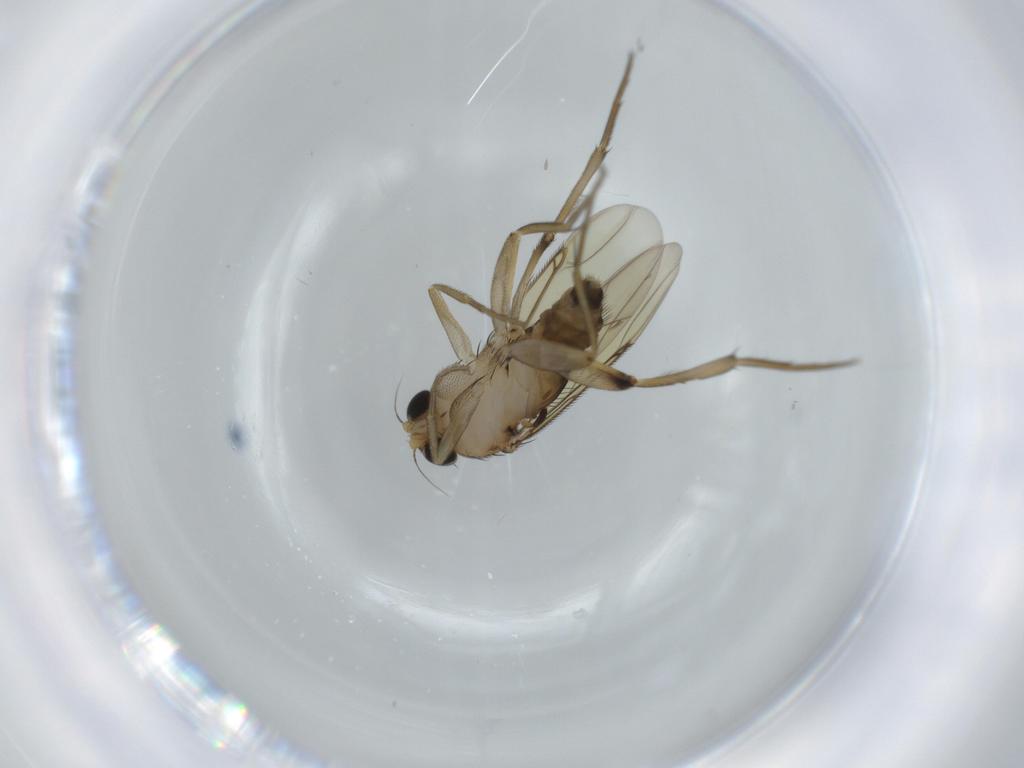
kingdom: Animalia
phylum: Arthropoda
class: Insecta
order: Diptera
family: Phoridae
